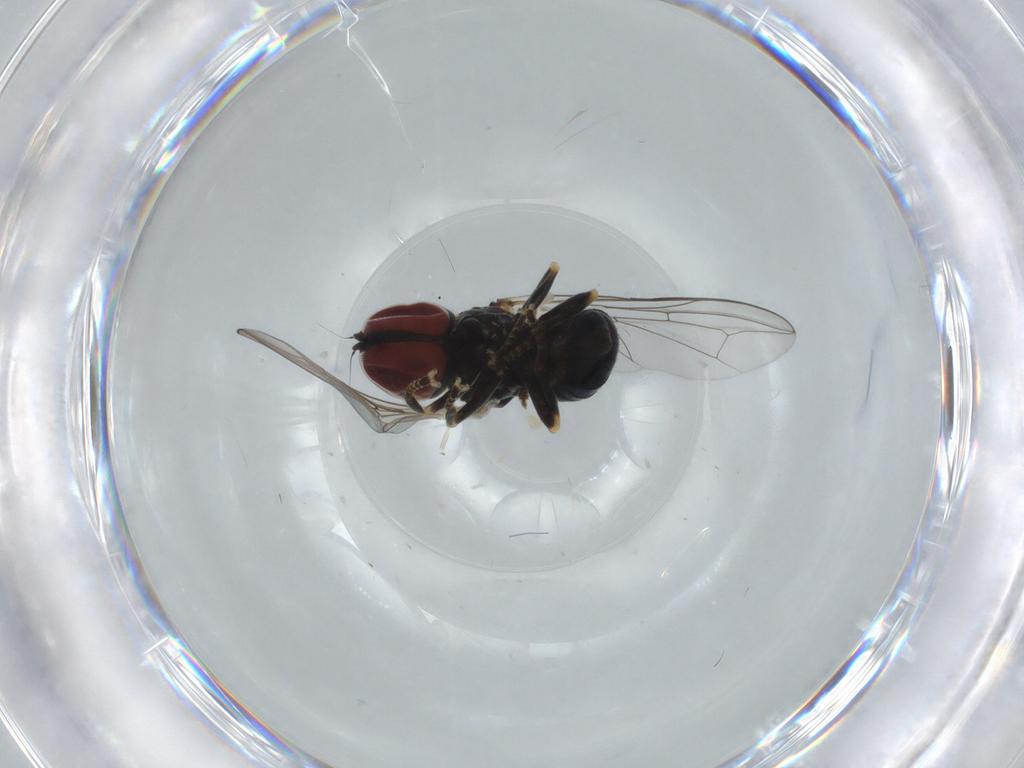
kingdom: Animalia
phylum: Arthropoda
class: Insecta
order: Diptera
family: Pipunculidae
